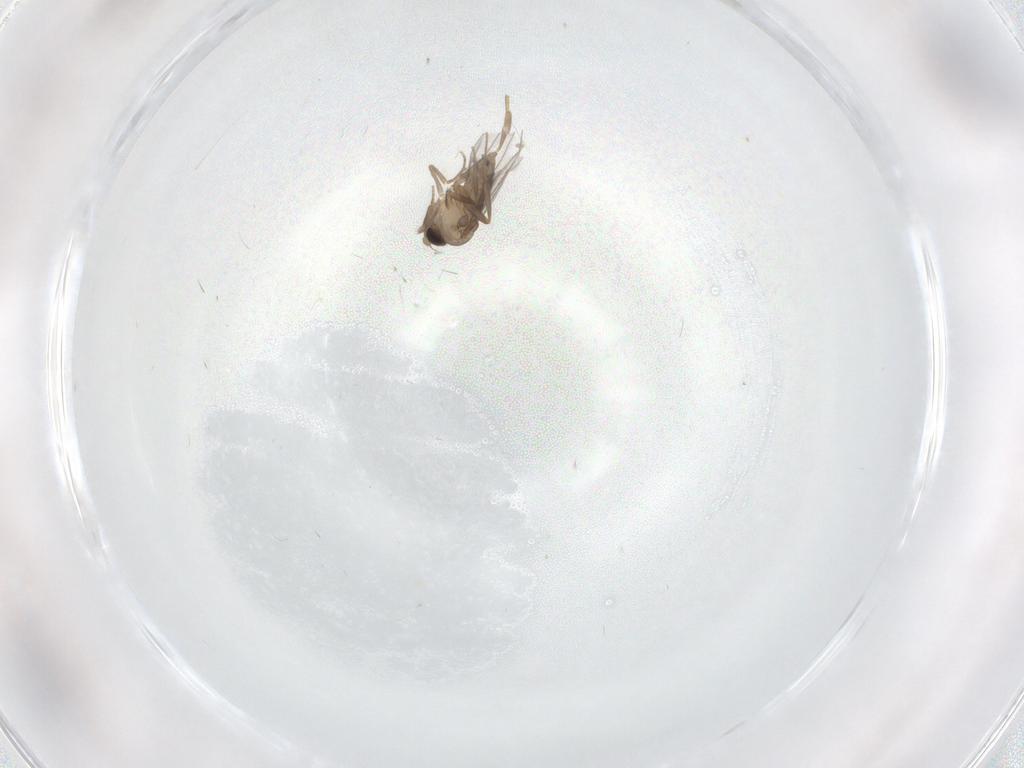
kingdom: Animalia
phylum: Arthropoda
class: Insecta
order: Diptera
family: Chironomidae
